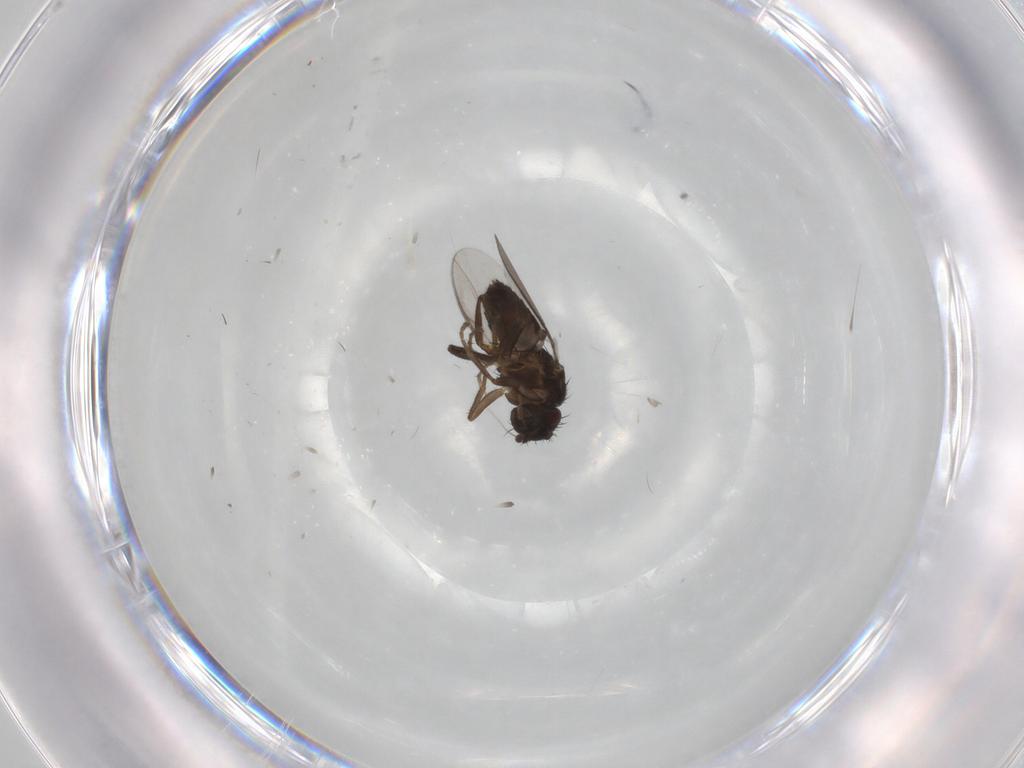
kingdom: Animalia
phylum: Arthropoda
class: Insecta
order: Diptera
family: Sphaeroceridae
